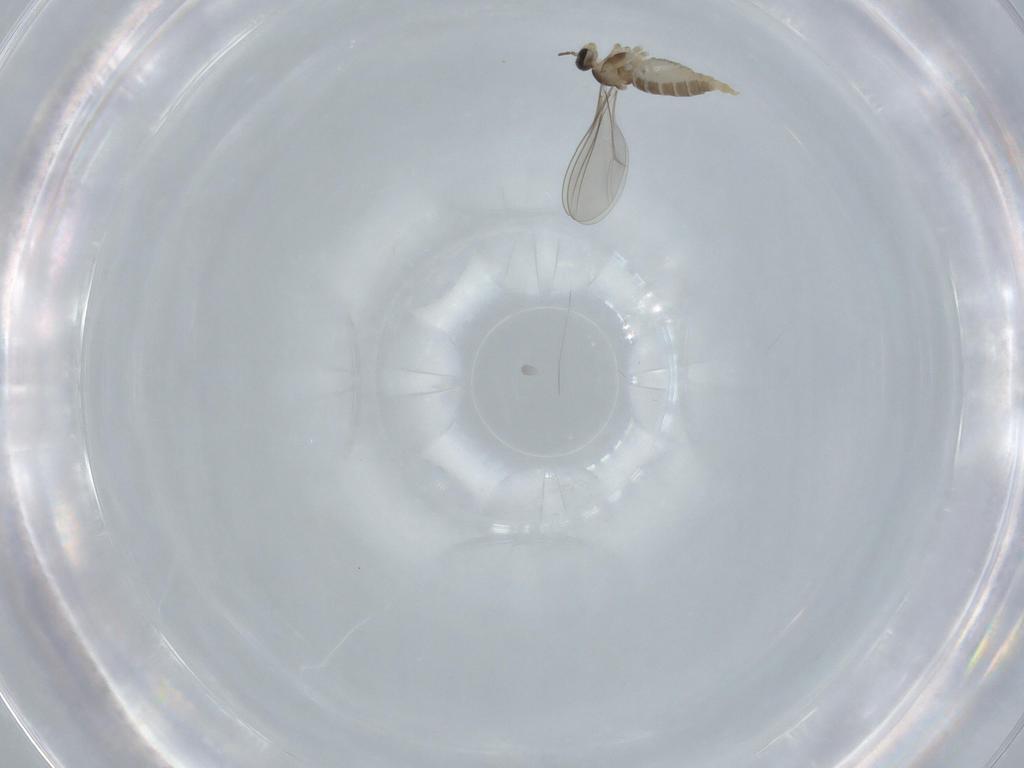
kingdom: Animalia
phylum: Arthropoda
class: Insecta
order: Diptera
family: Cecidomyiidae
